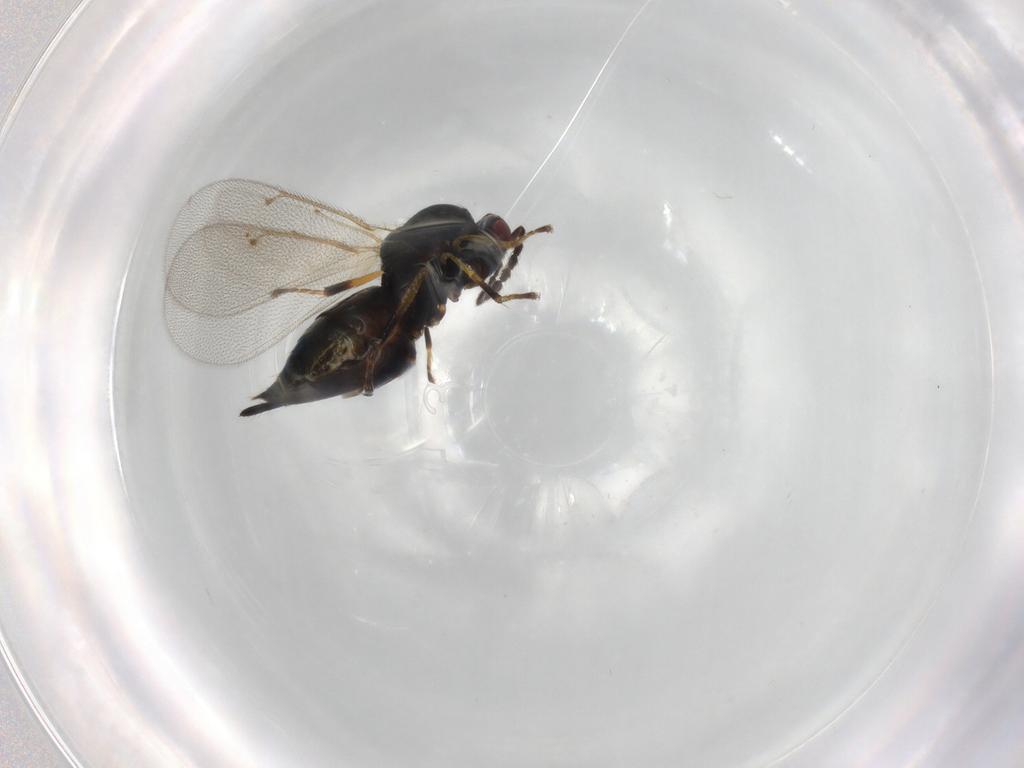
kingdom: Animalia
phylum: Arthropoda
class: Insecta
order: Hymenoptera
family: Eulophidae
